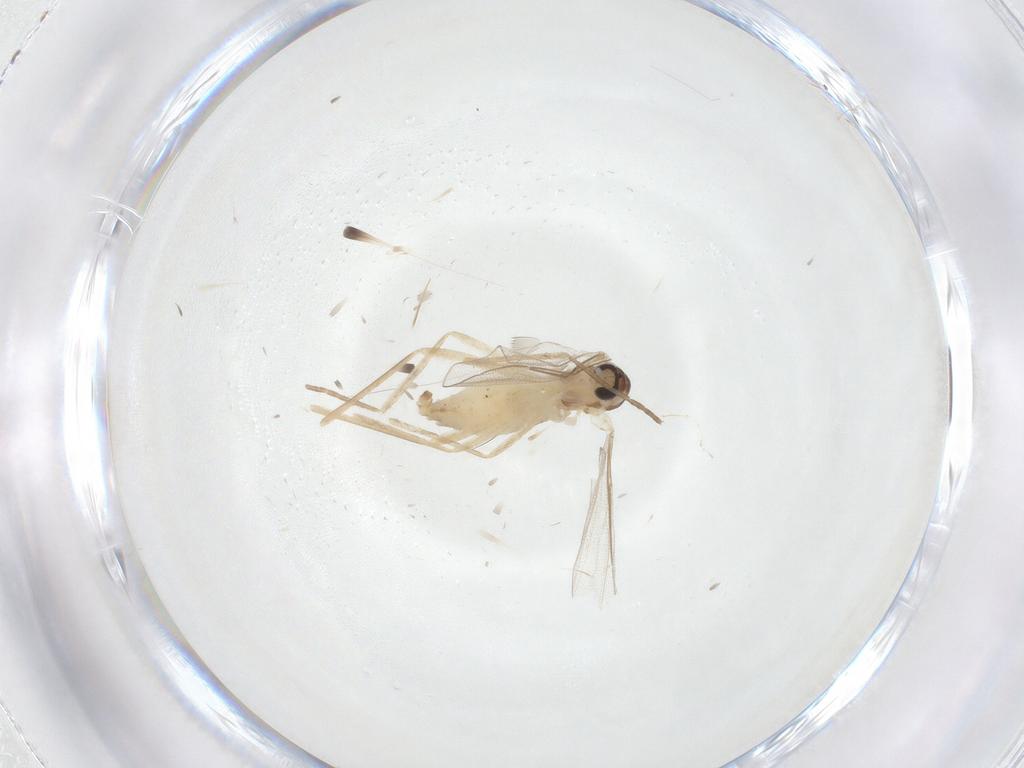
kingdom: Animalia
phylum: Arthropoda
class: Insecta
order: Diptera
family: Cecidomyiidae
